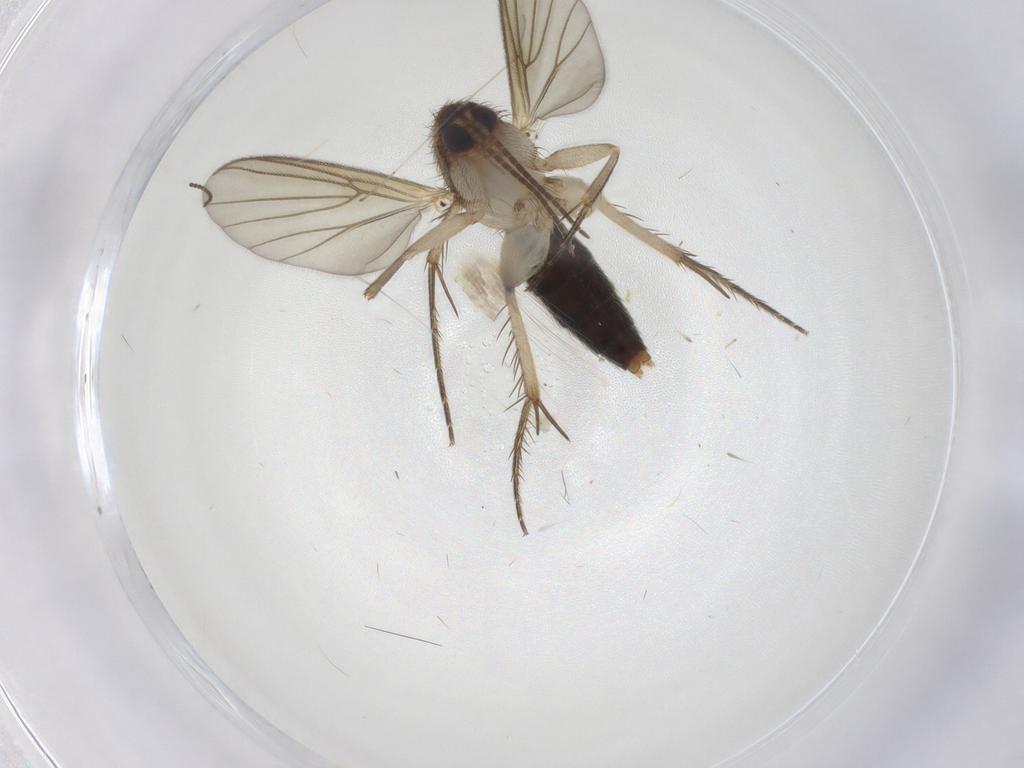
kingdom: Animalia
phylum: Arthropoda
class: Insecta
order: Diptera
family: Mycetophilidae
